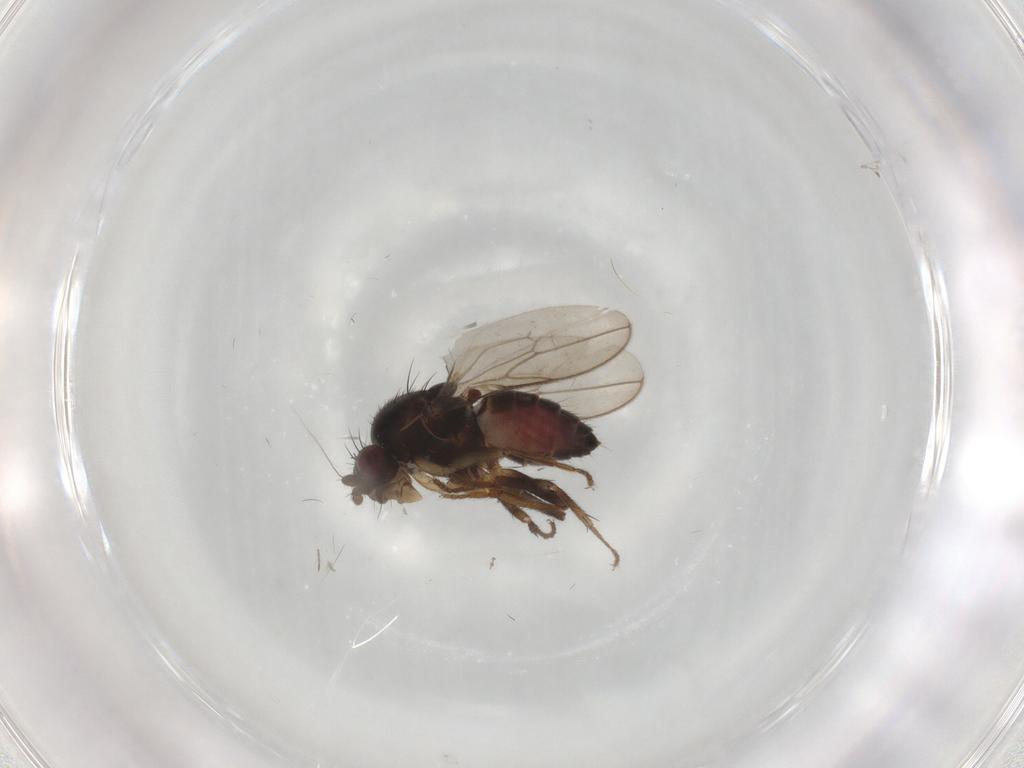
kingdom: Animalia
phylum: Arthropoda
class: Insecta
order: Diptera
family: Sphaeroceridae
